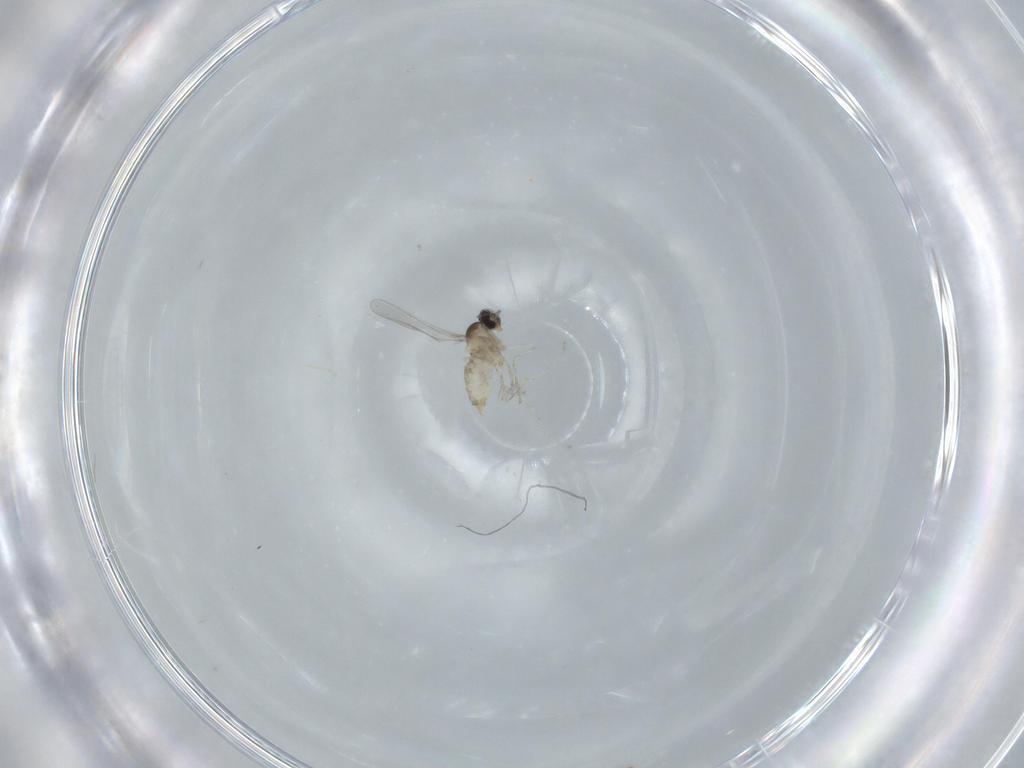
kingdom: Animalia
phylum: Arthropoda
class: Insecta
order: Diptera
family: Cecidomyiidae
